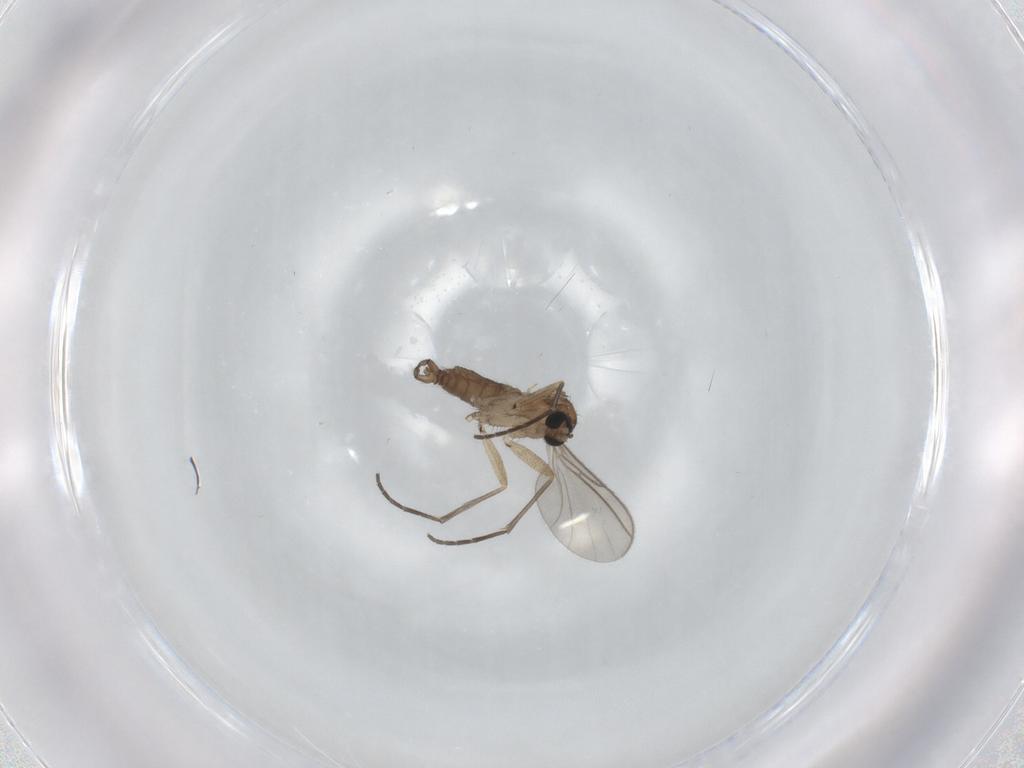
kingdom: Animalia
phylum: Arthropoda
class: Insecta
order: Diptera
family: Sciaridae
